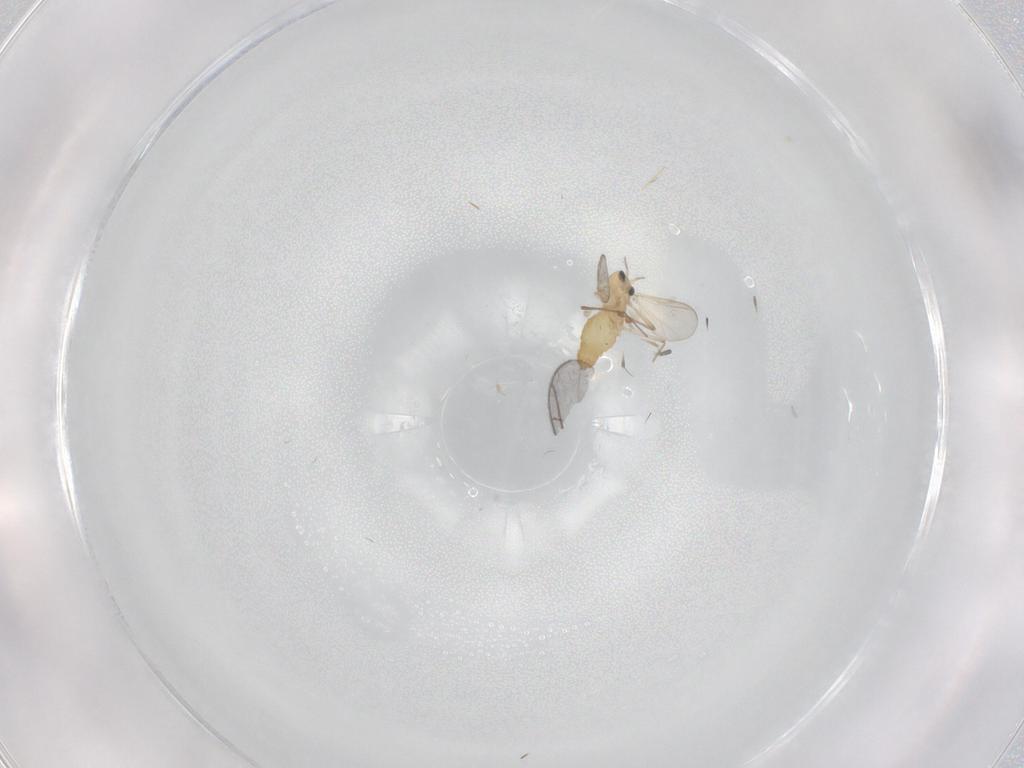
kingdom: Animalia
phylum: Arthropoda
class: Insecta
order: Diptera
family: Chironomidae
